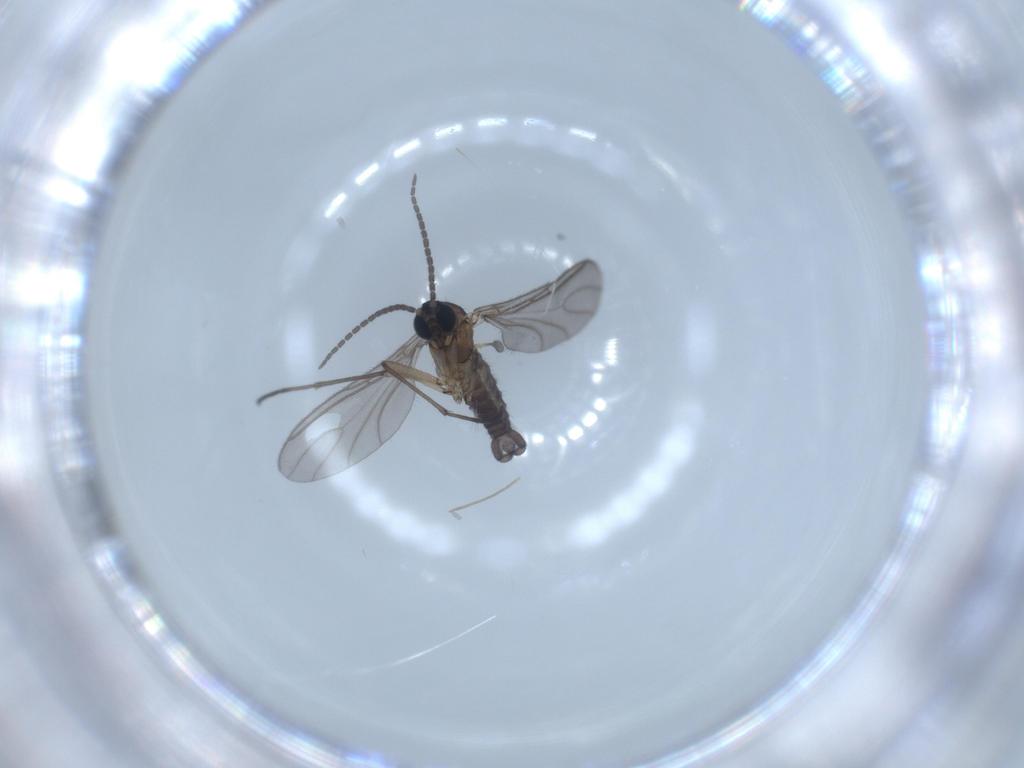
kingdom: Animalia
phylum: Arthropoda
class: Insecta
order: Diptera
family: Sciaridae
